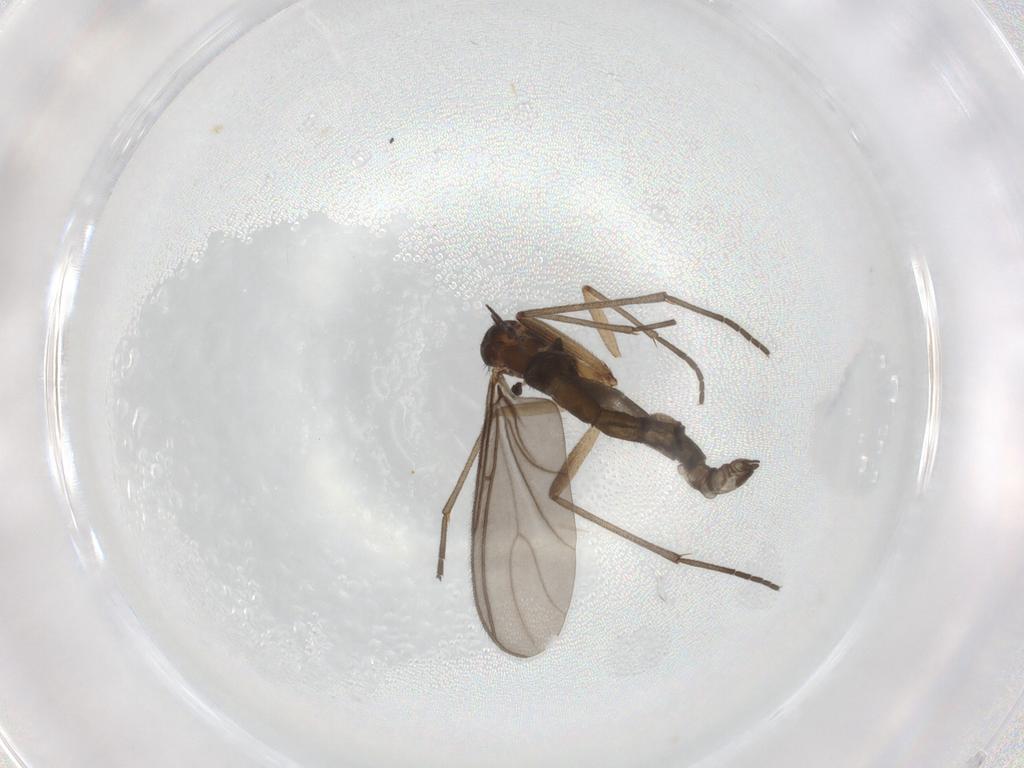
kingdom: Animalia
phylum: Arthropoda
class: Insecta
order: Diptera
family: Sciaridae
